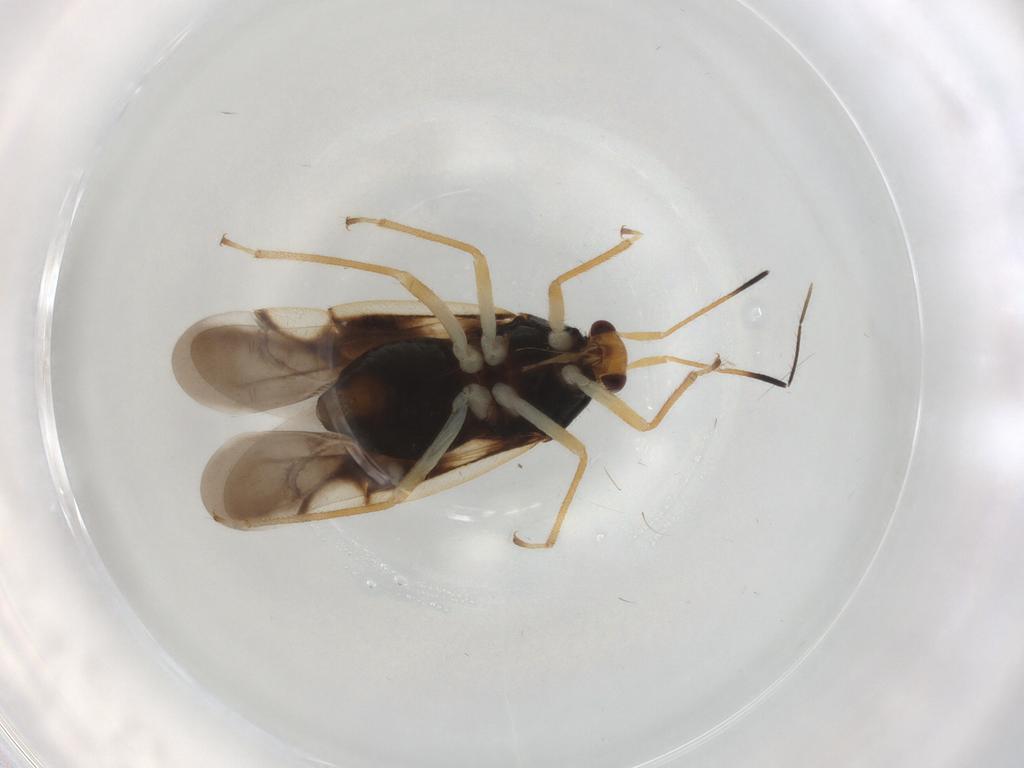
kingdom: Animalia
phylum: Arthropoda
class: Insecta
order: Hemiptera
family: Miridae
